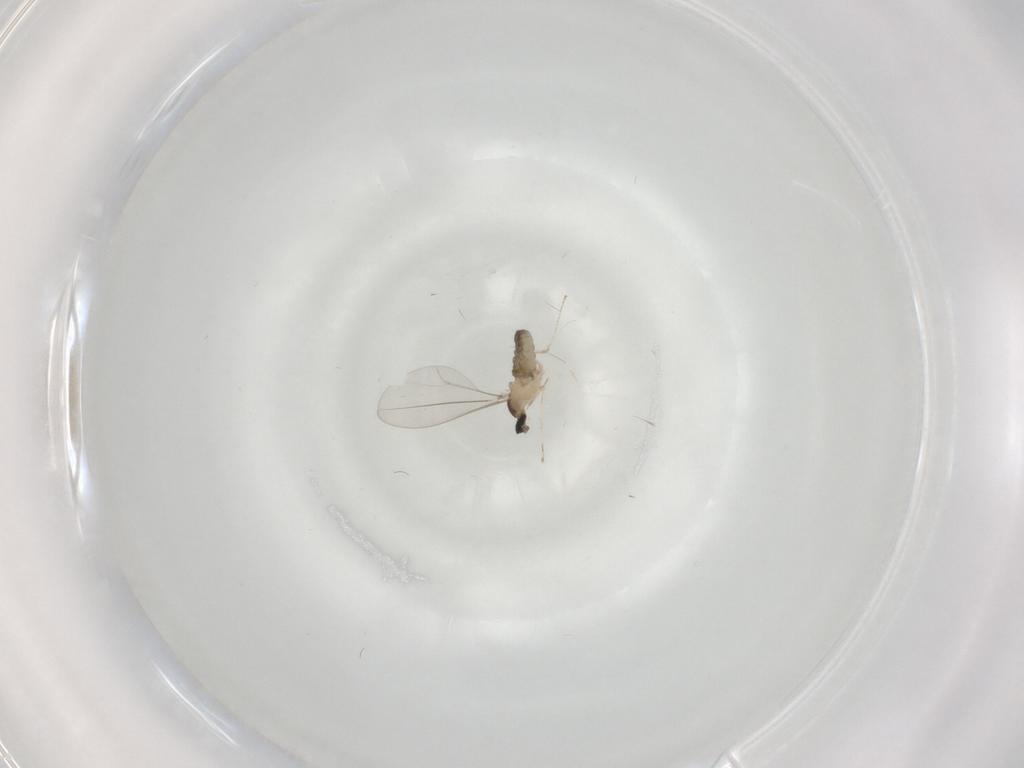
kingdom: Animalia
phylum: Arthropoda
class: Insecta
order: Diptera
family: Cecidomyiidae
